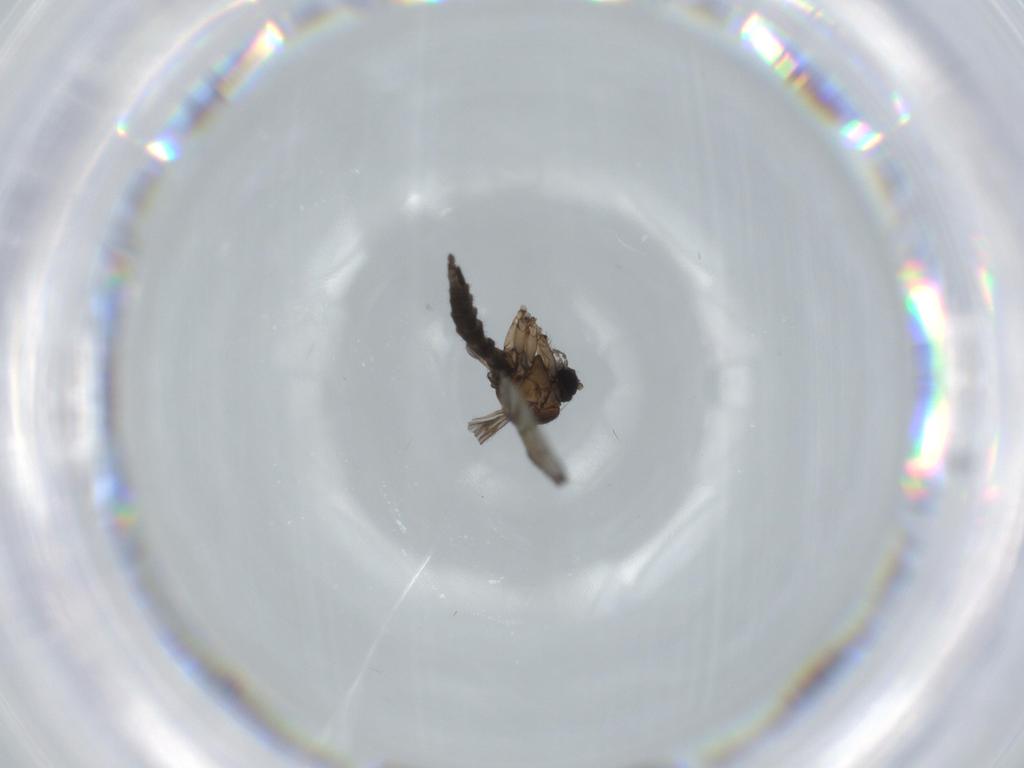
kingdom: Animalia
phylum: Arthropoda
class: Insecta
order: Diptera
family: Sciaridae
